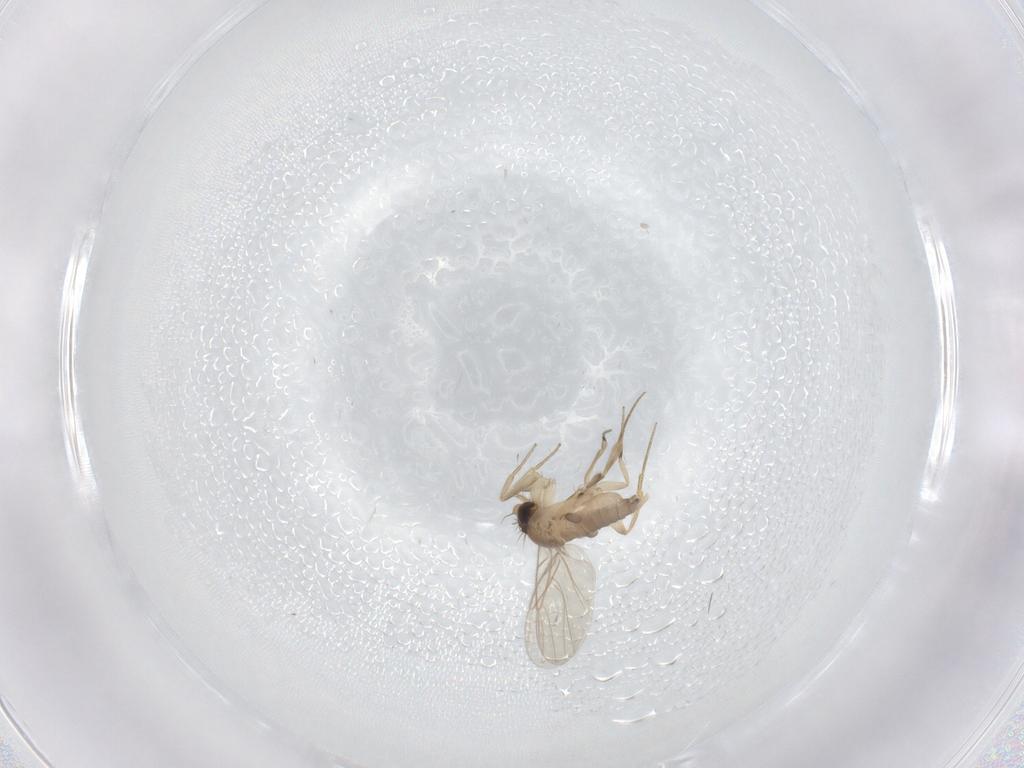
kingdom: Animalia
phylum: Arthropoda
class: Insecta
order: Diptera
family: Phoridae
